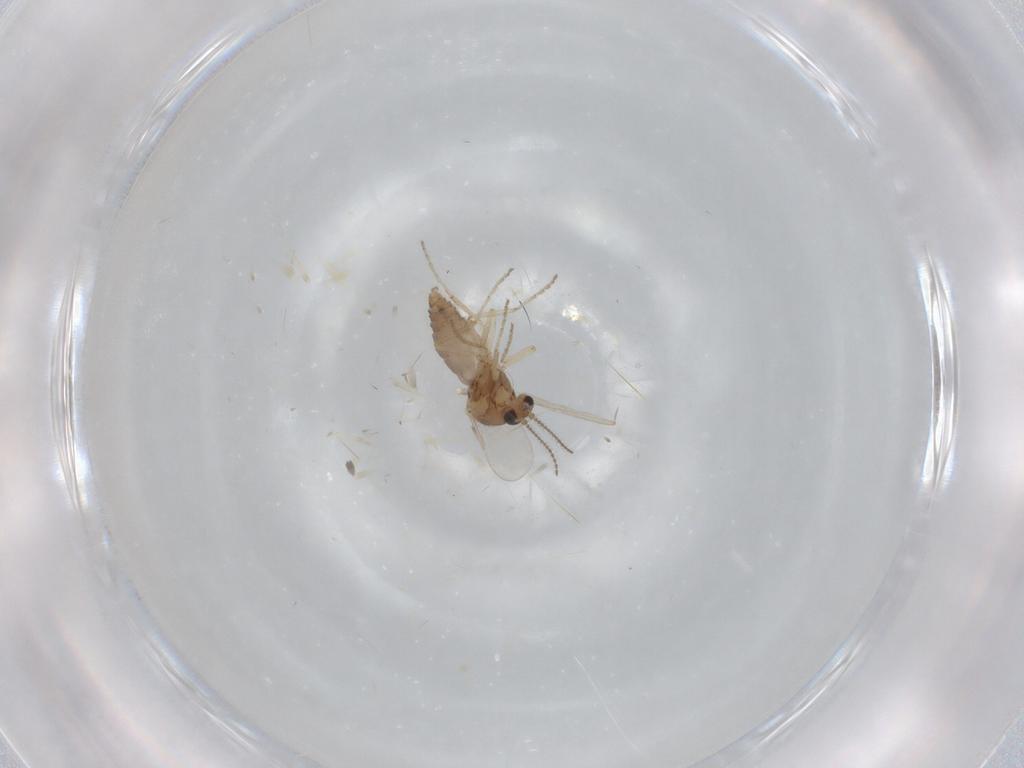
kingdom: Animalia
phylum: Arthropoda
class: Insecta
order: Diptera
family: Ceratopogonidae
